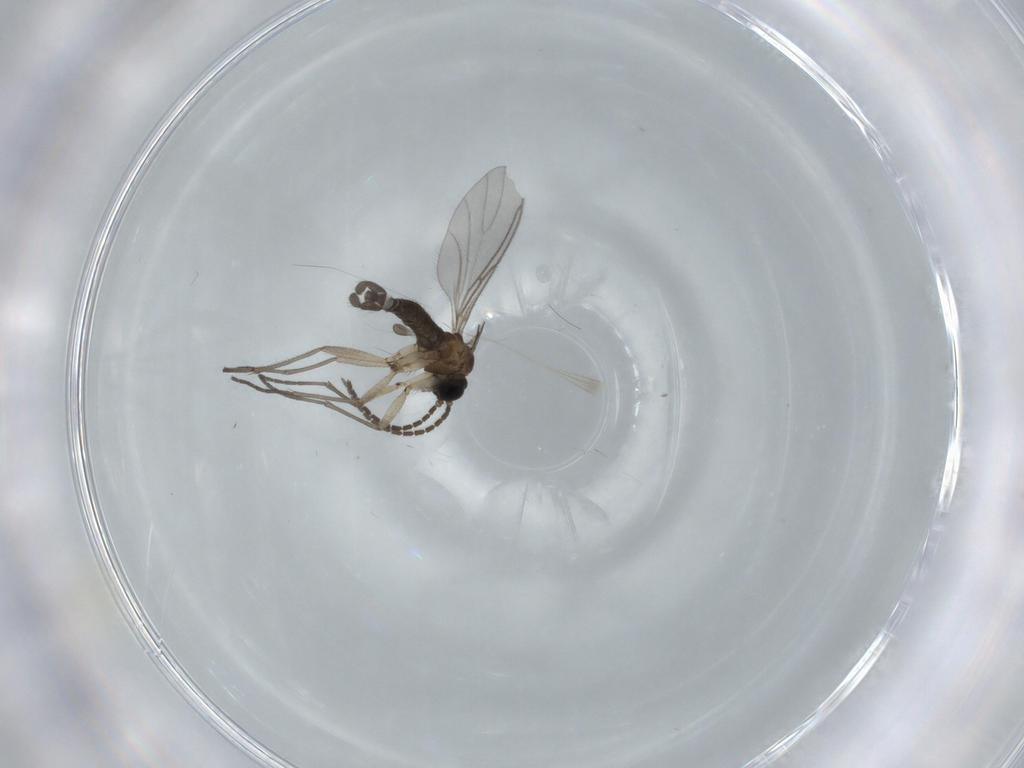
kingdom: Animalia
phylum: Arthropoda
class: Insecta
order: Diptera
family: Sciaridae
